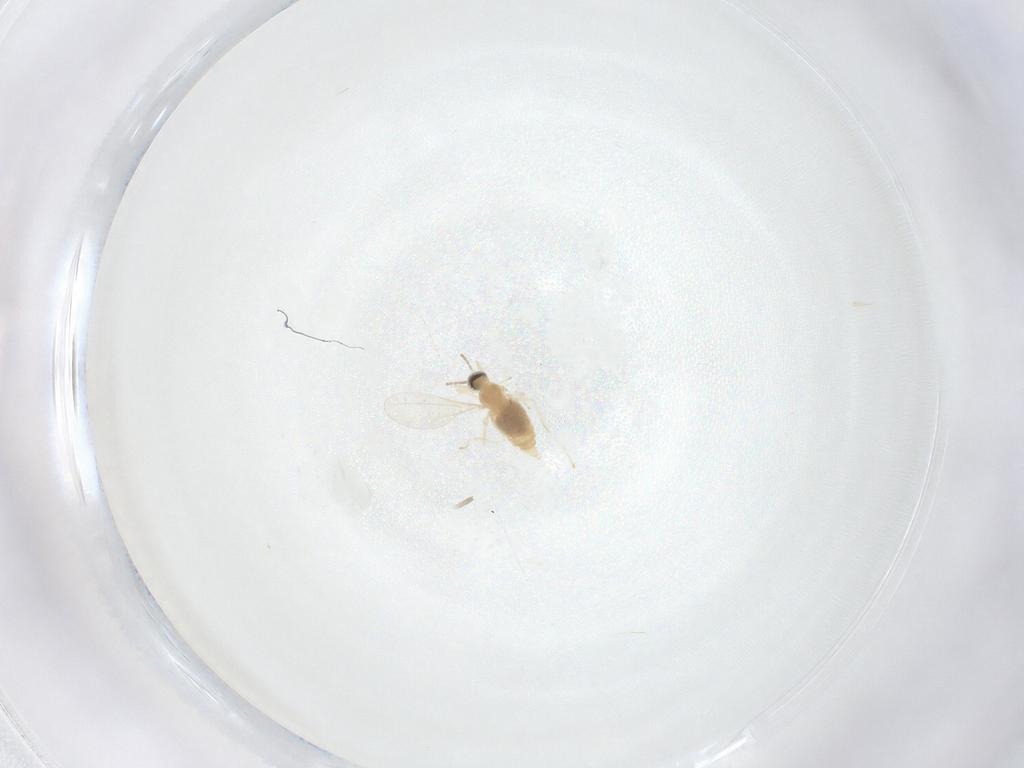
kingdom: Animalia
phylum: Arthropoda
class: Insecta
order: Diptera
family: Cecidomyiidae
